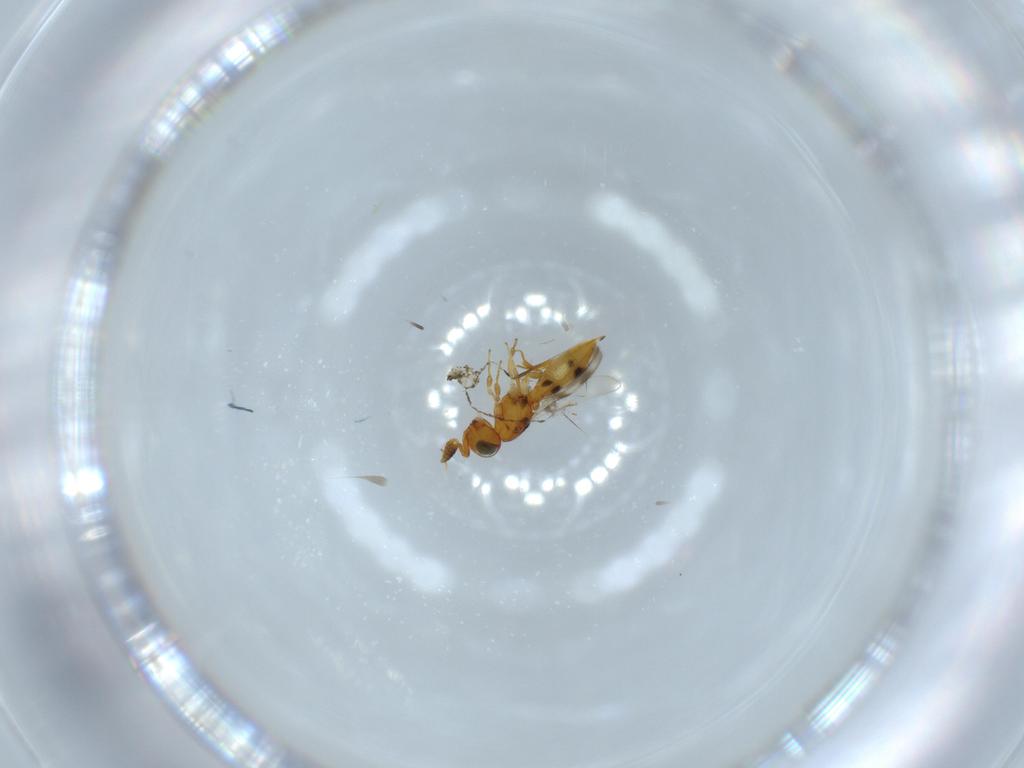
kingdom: Animalia
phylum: Arthropoda
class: Insecta
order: Hymenoptera
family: Scelionidae
